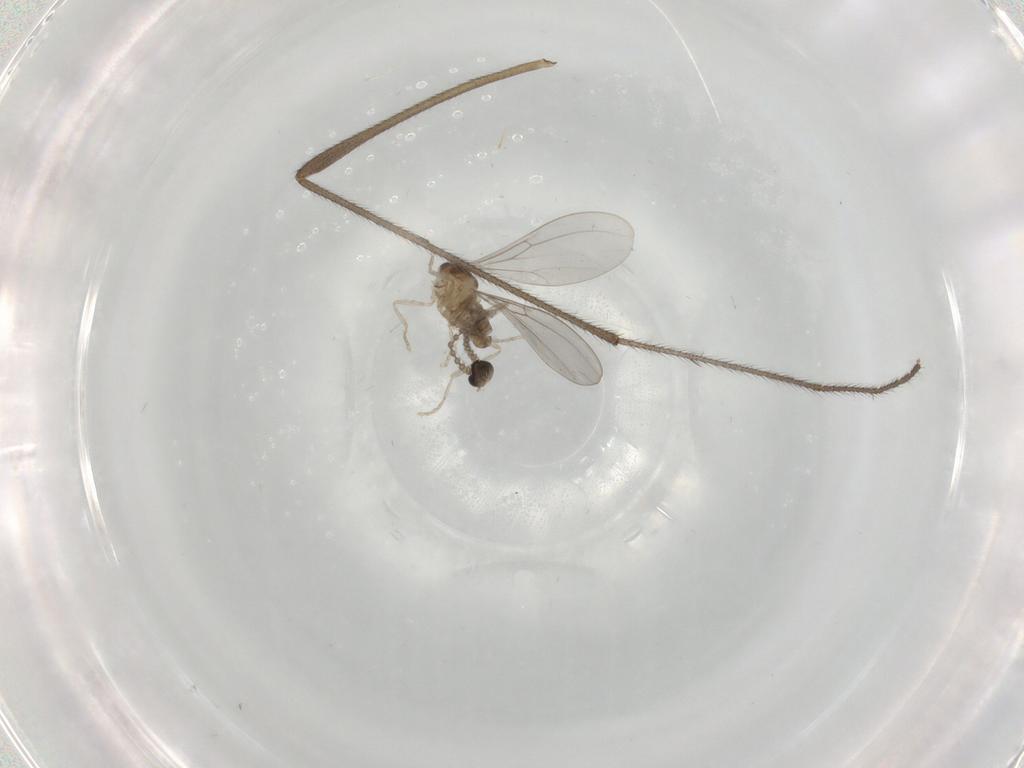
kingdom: Animalia
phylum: Arthropoda
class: Insecta
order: Diptera
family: Cecidomyiidae
